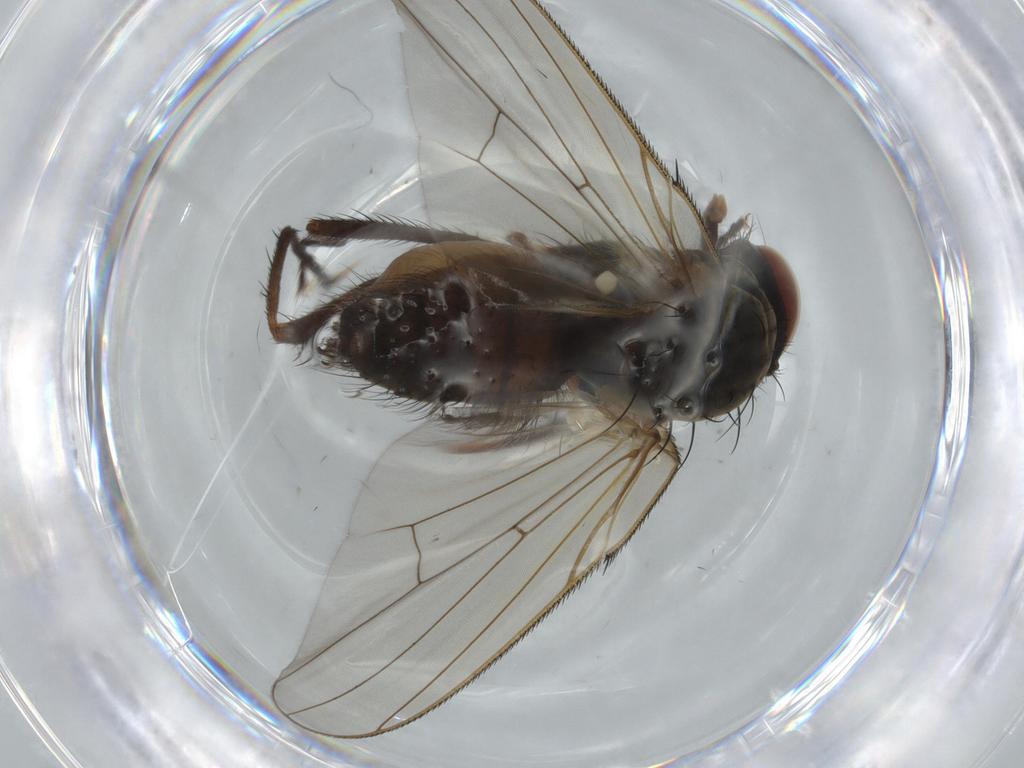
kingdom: Animalia
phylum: Arthropoda
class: Insecta
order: Diptera
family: Anthomyiidae
